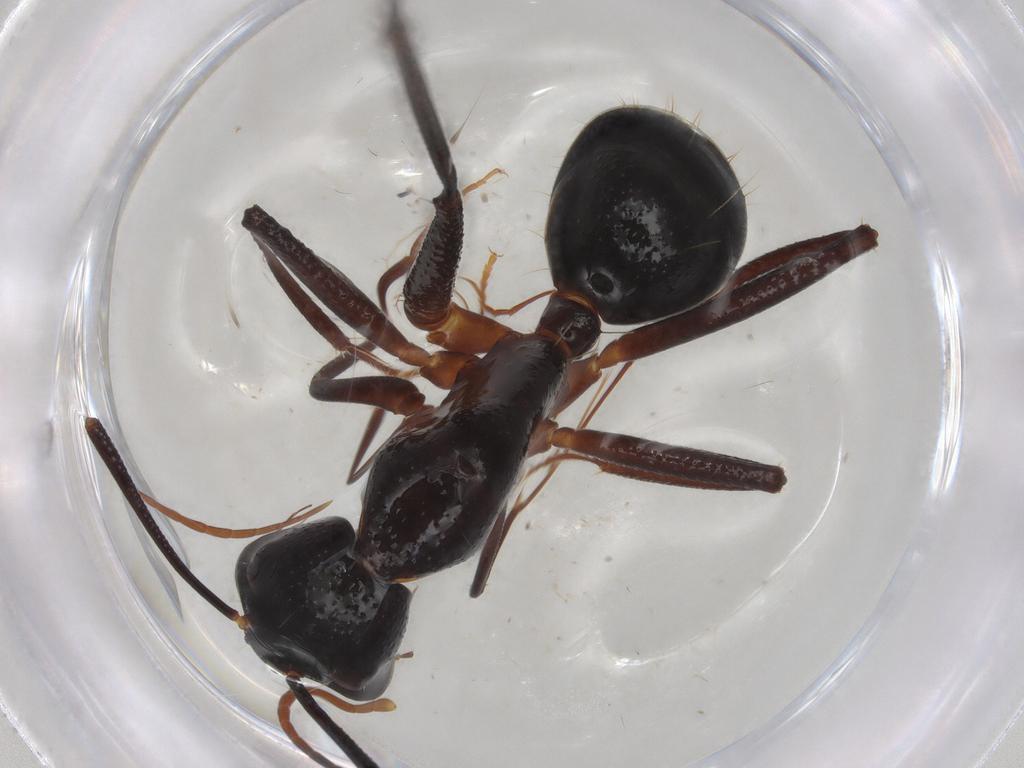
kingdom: Animalia
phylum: Arthropoda
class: Insecta
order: Hymenoptera
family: Formicidae
